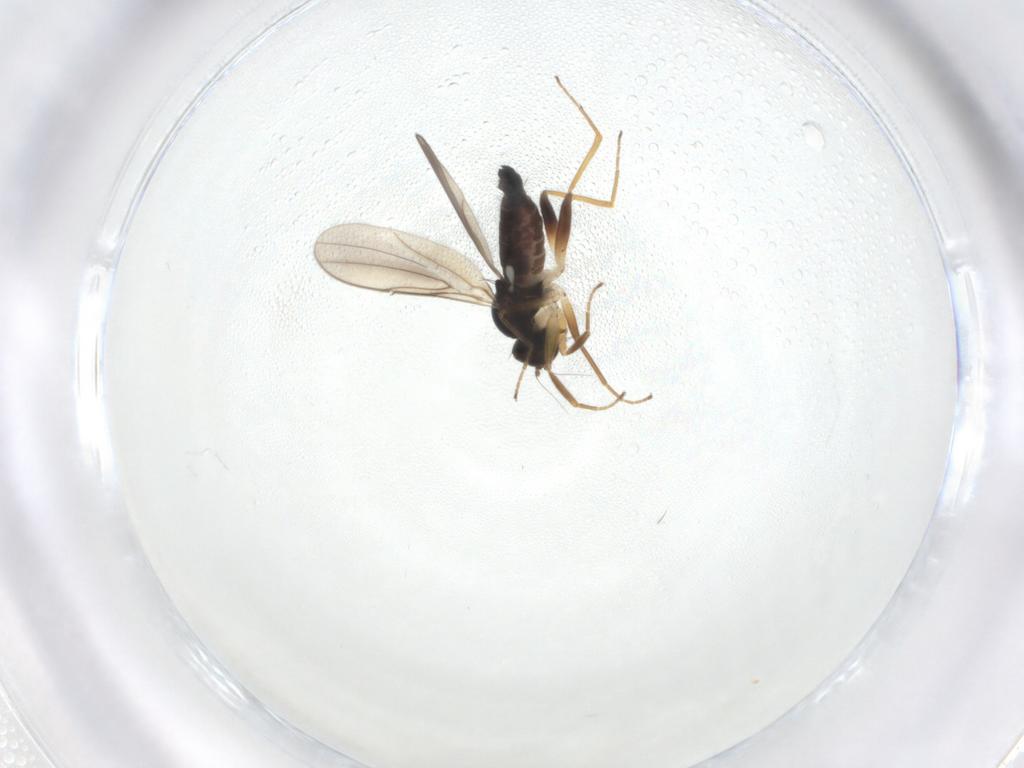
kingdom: Animalia
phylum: Arthropoda
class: Insecta
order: Diptera
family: Hybotidae
